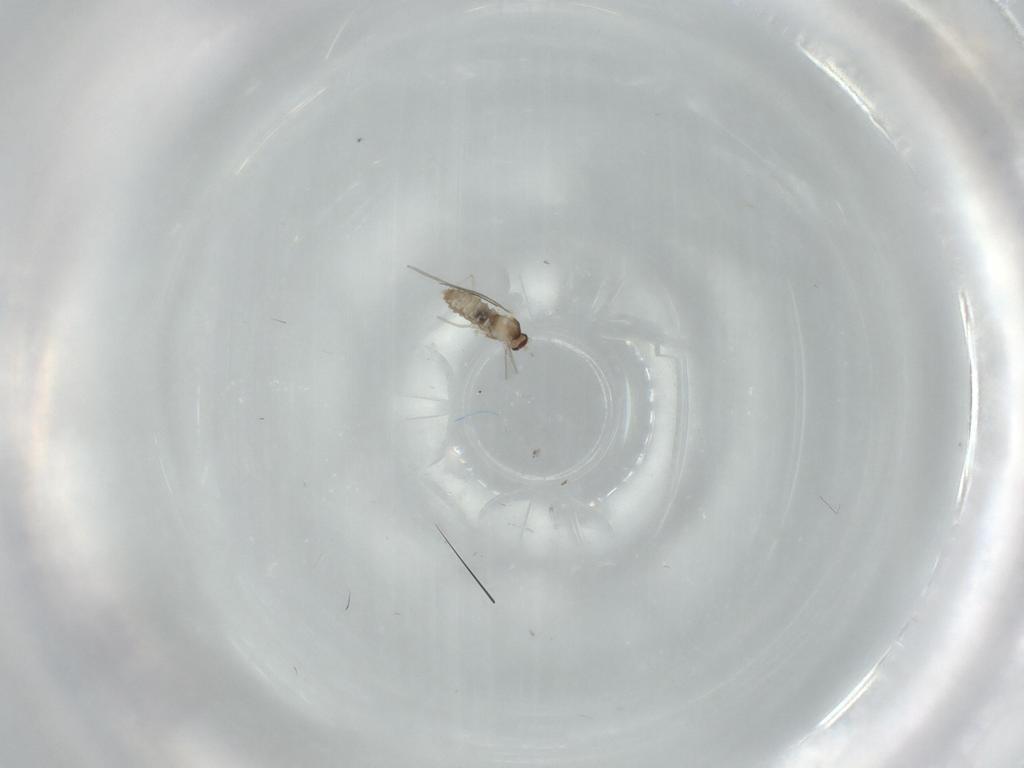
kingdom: Animalia
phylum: Arthropoda
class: Insecta
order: Diptera
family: Cecidomyiidae
